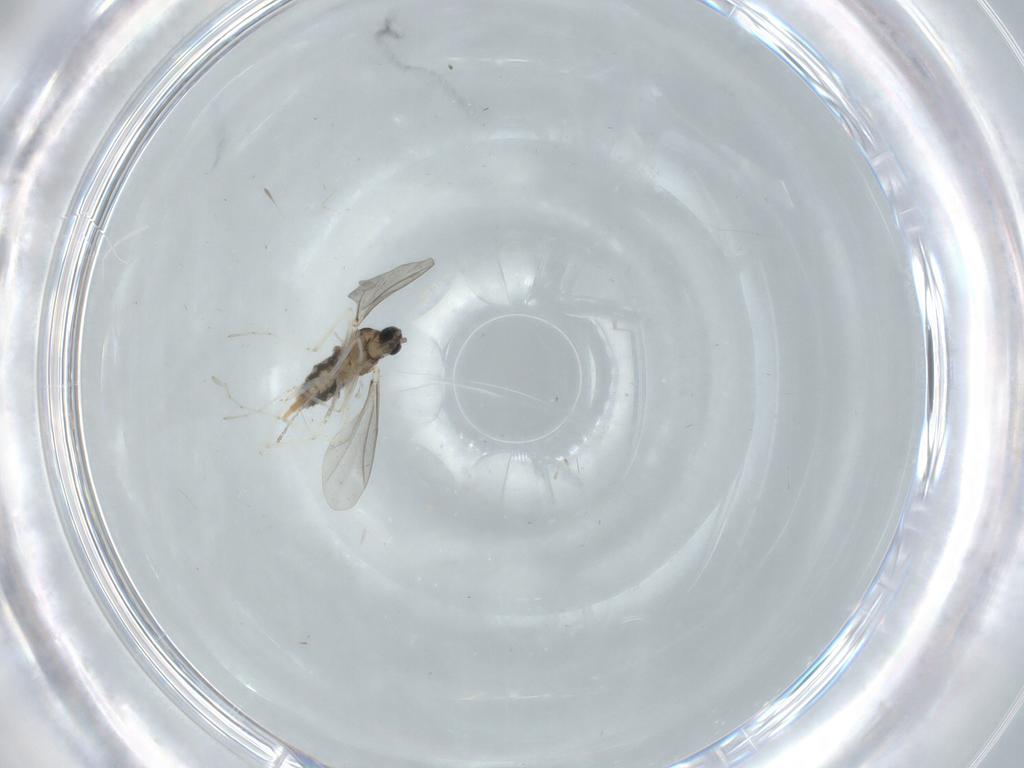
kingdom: Animalia
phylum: Arthropoda
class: Insecta
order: Diptera
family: Cecidomyiidae
